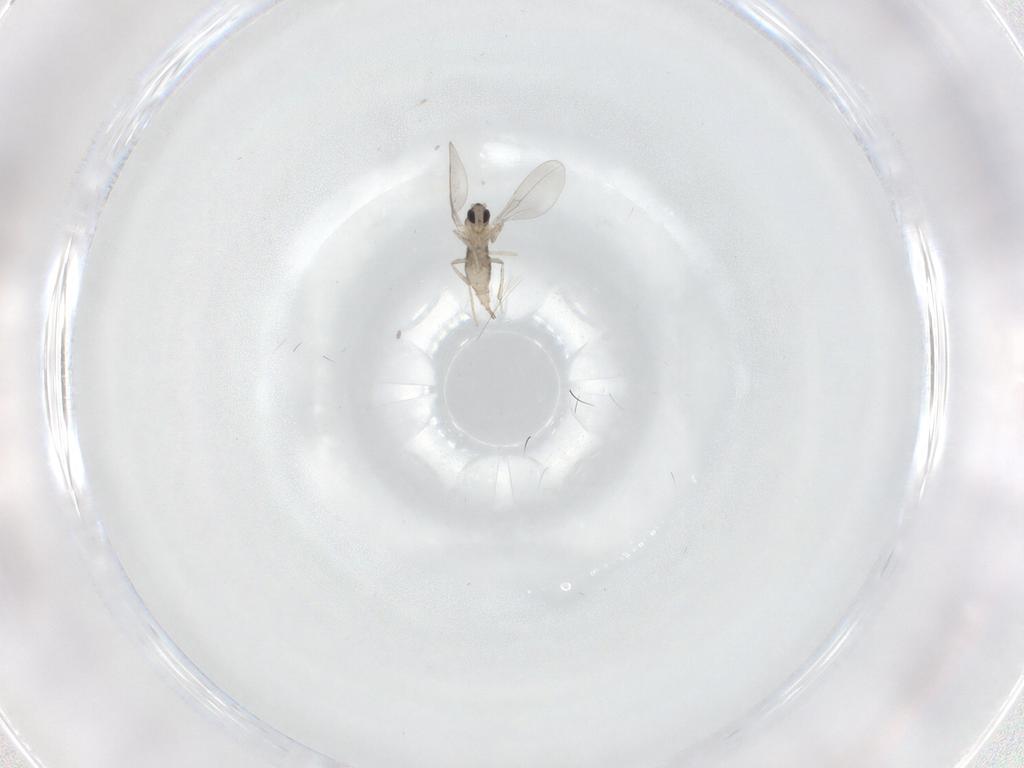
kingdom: Animalia
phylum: Arthropoda
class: Insecta
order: Diptera
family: Cecidomyiidae
